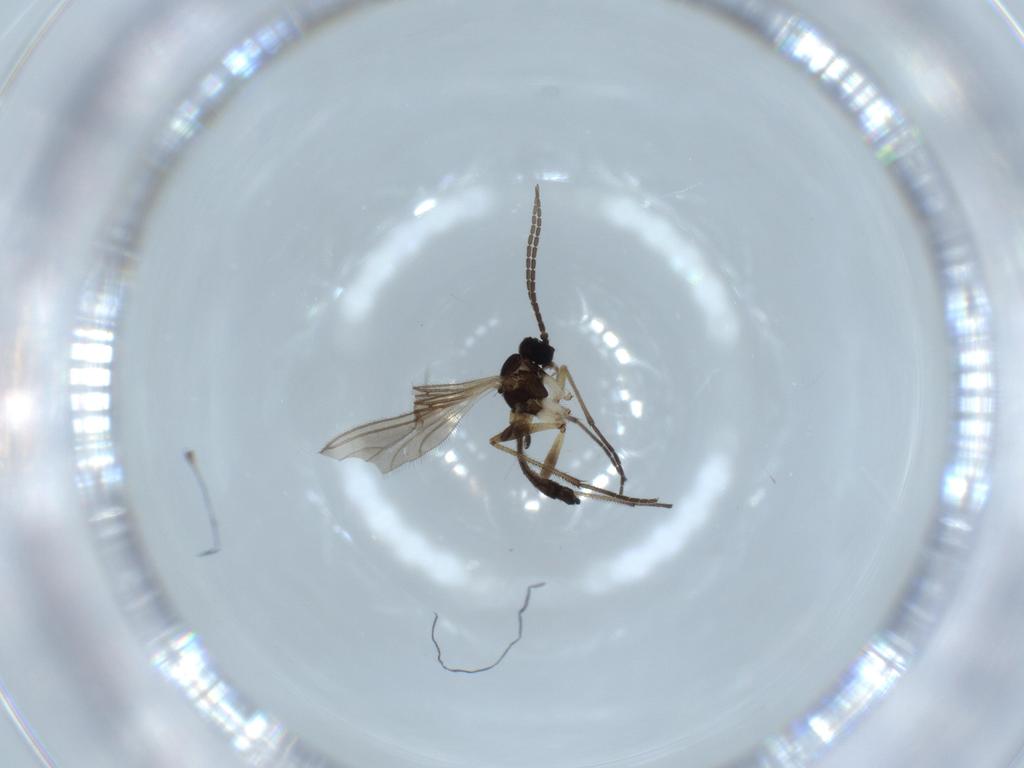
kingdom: Animalia
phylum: Arthropoda
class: Insecta
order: Diptera
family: Sciaridae
